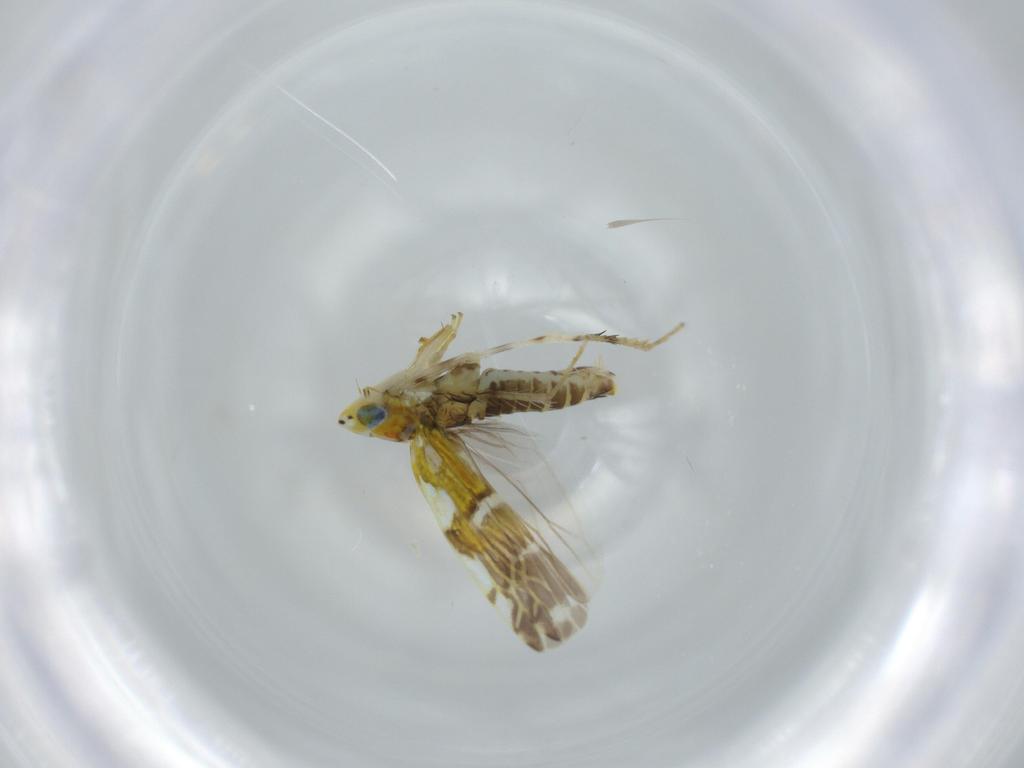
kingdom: Animalia
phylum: Arthropoda
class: Insecta
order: Hemiptera
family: Cicadellidae
